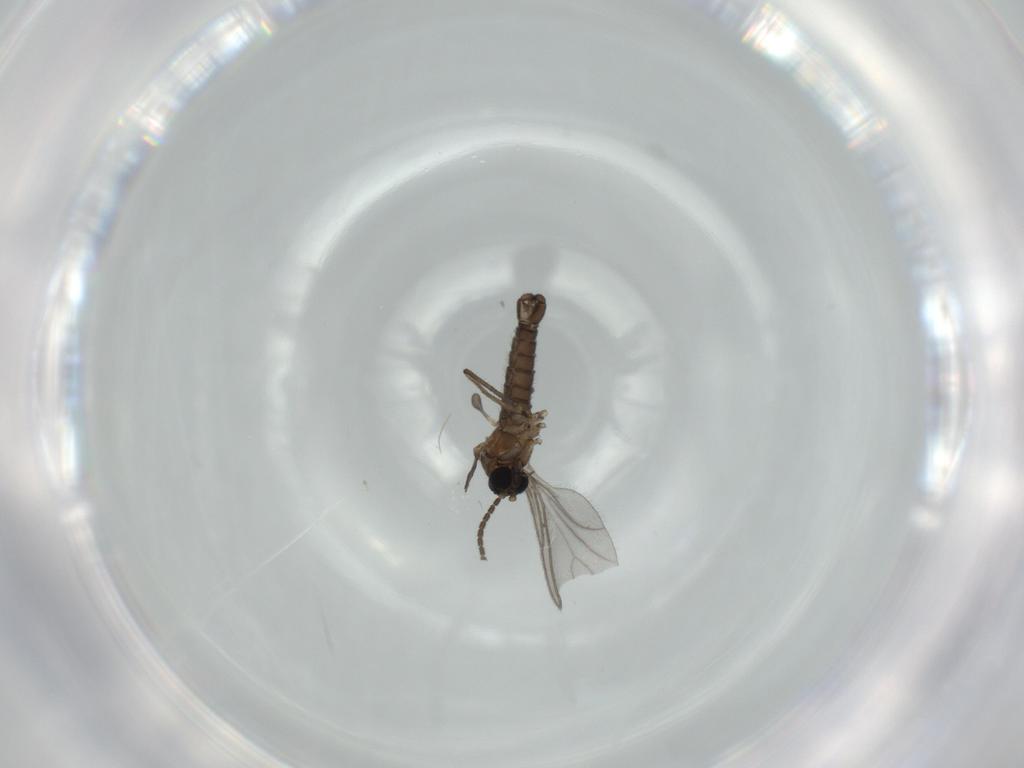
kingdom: Animalia
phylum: Arthropoda
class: Insecta
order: Diptera
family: Sciaridae
